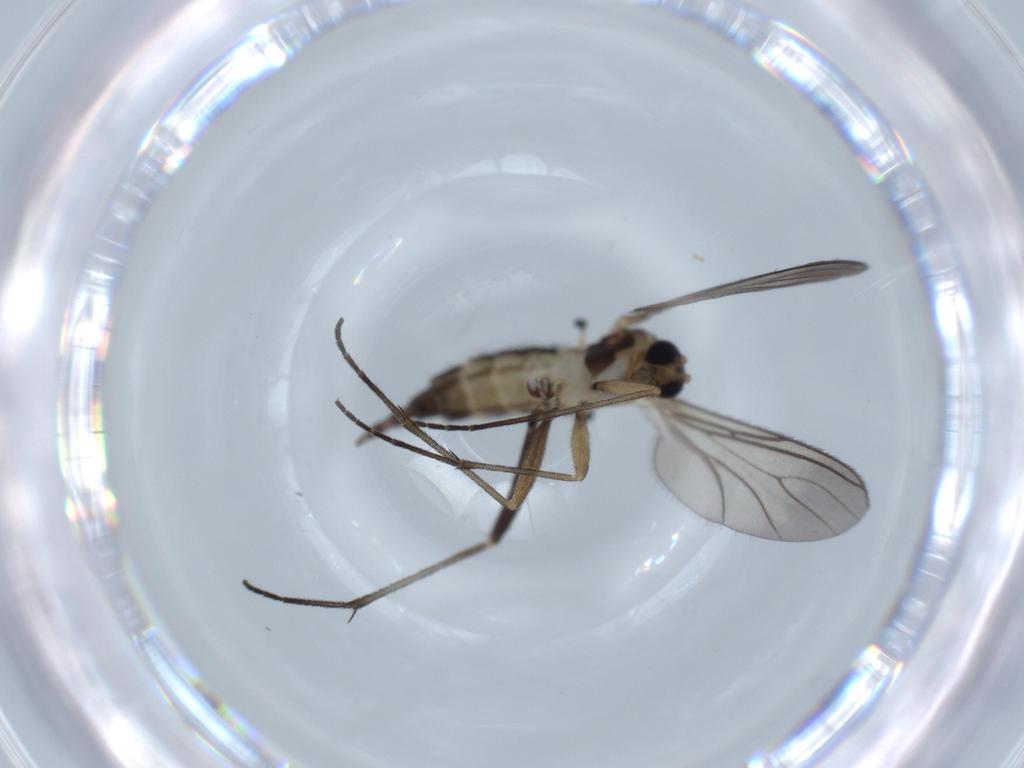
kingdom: Animalia
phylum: Arthropoda
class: Insecta
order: Diptera
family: Sciaridae
